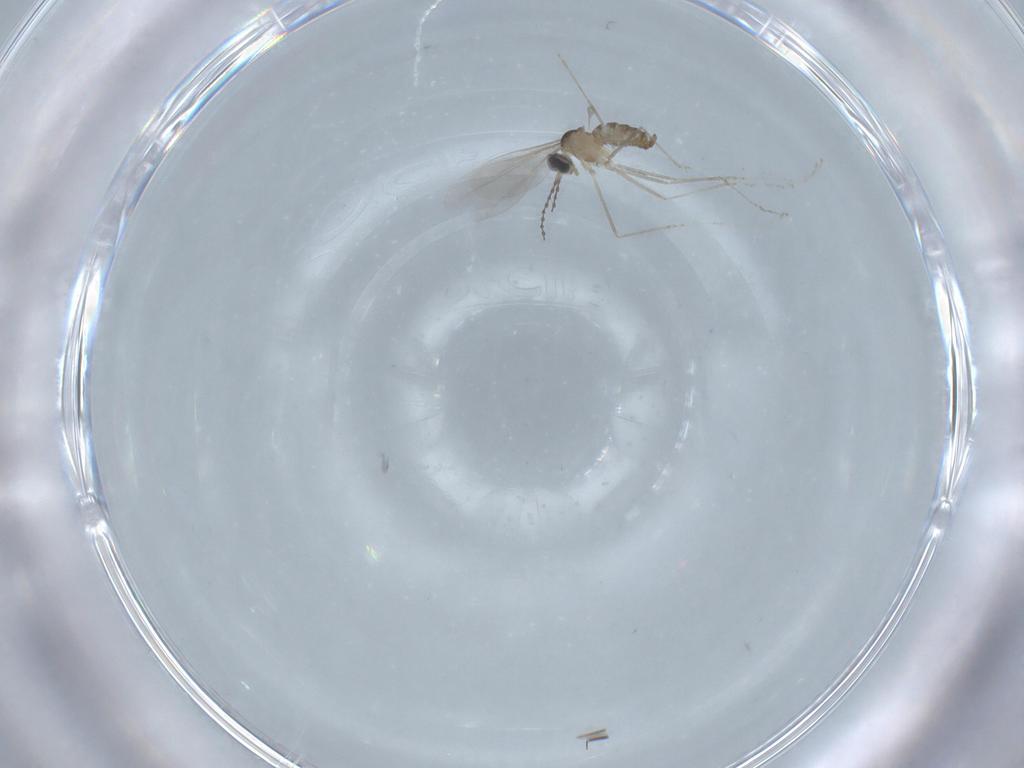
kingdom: Animalia
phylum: Arthropoda
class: Insecta
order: Diptera
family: Cecidomyiidae
